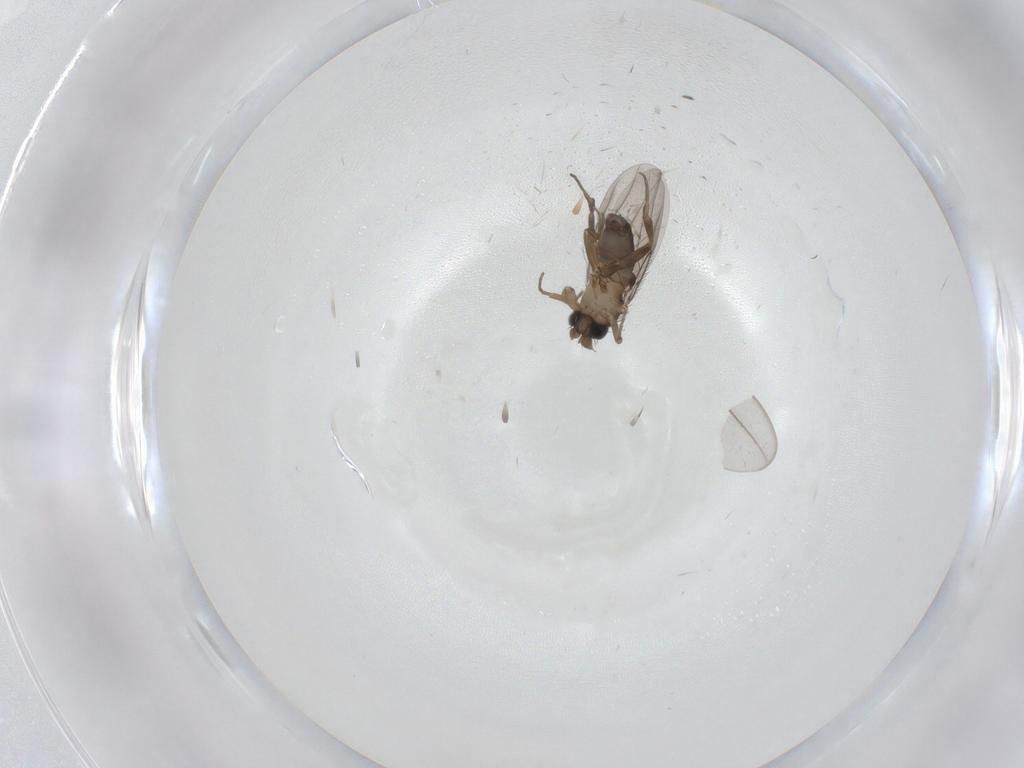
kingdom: Animalia
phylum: Arthropoda
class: Insecta
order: Diptera
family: Chironomidae
